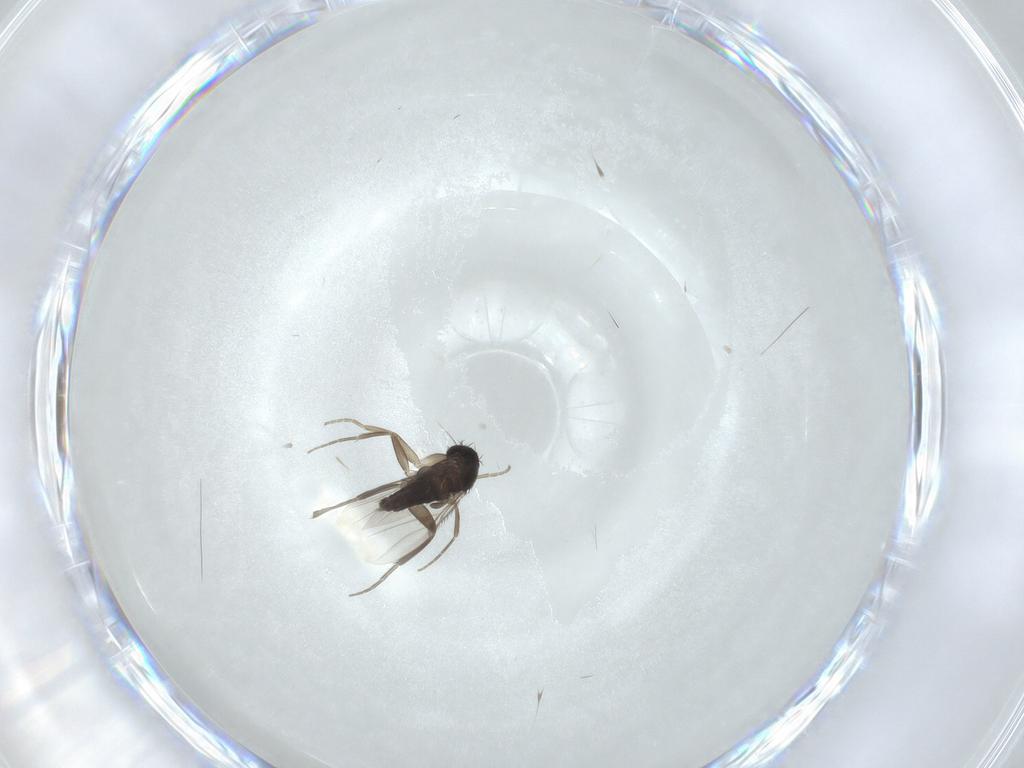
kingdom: Animalia
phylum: Arthropoda
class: Insecta
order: Diptera
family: Phoridae
